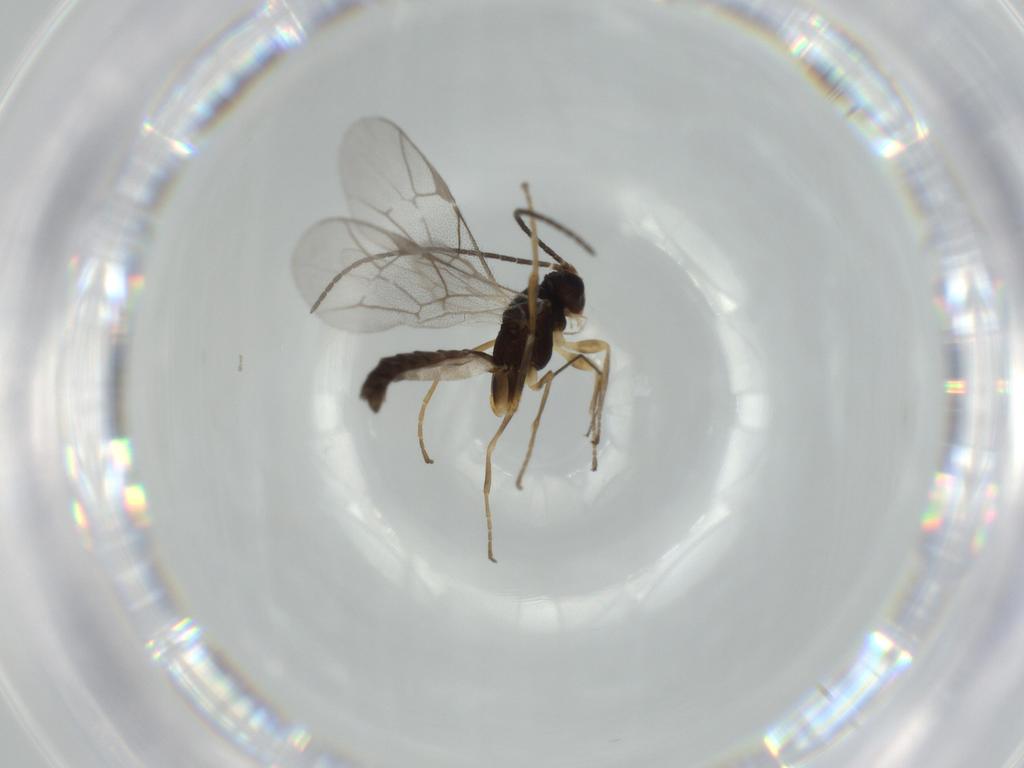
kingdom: Animalia
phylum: Arthropoda
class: Insecta
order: Hymenoptera
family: Ichneumonidae
